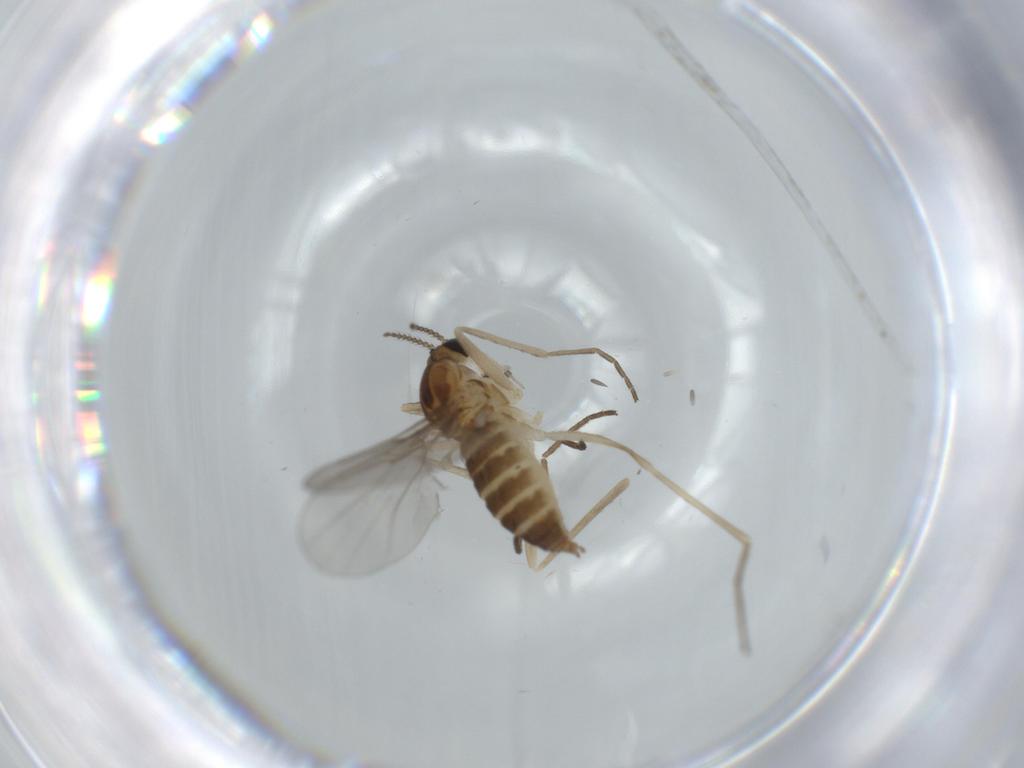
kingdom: Animalia
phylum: Arthropoda
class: Insecta
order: Diptera
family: Cecidomyiidae
